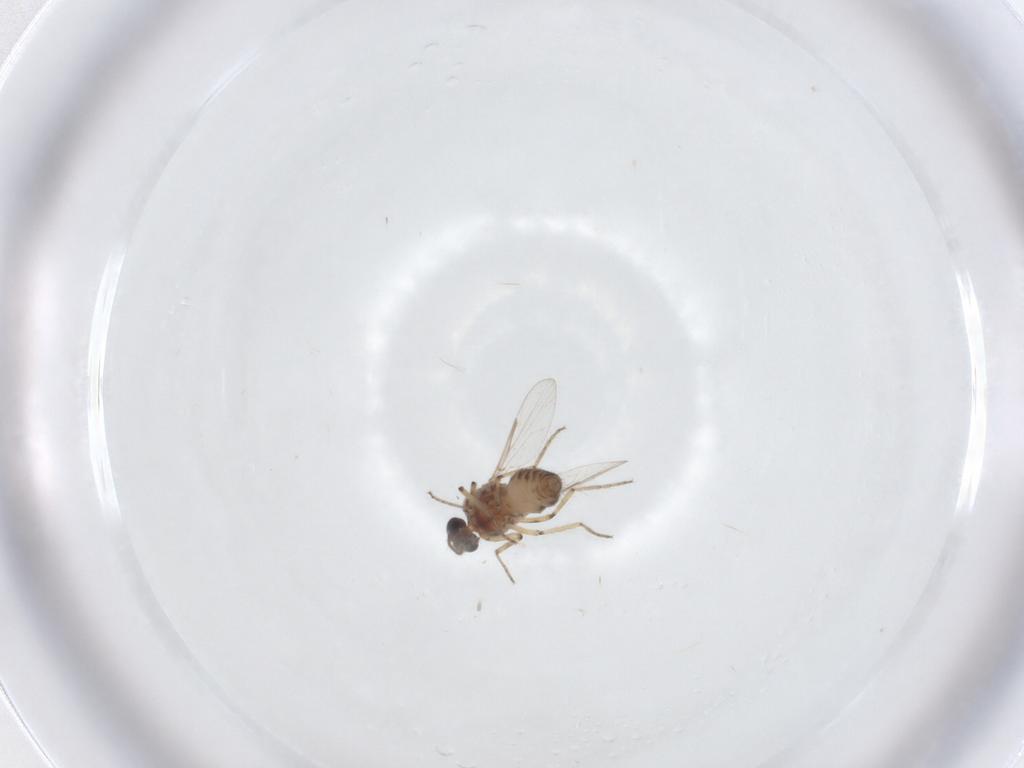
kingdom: Animalia
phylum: Arthropoda
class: Insecta
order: Diptera
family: Ceratopogonidae
